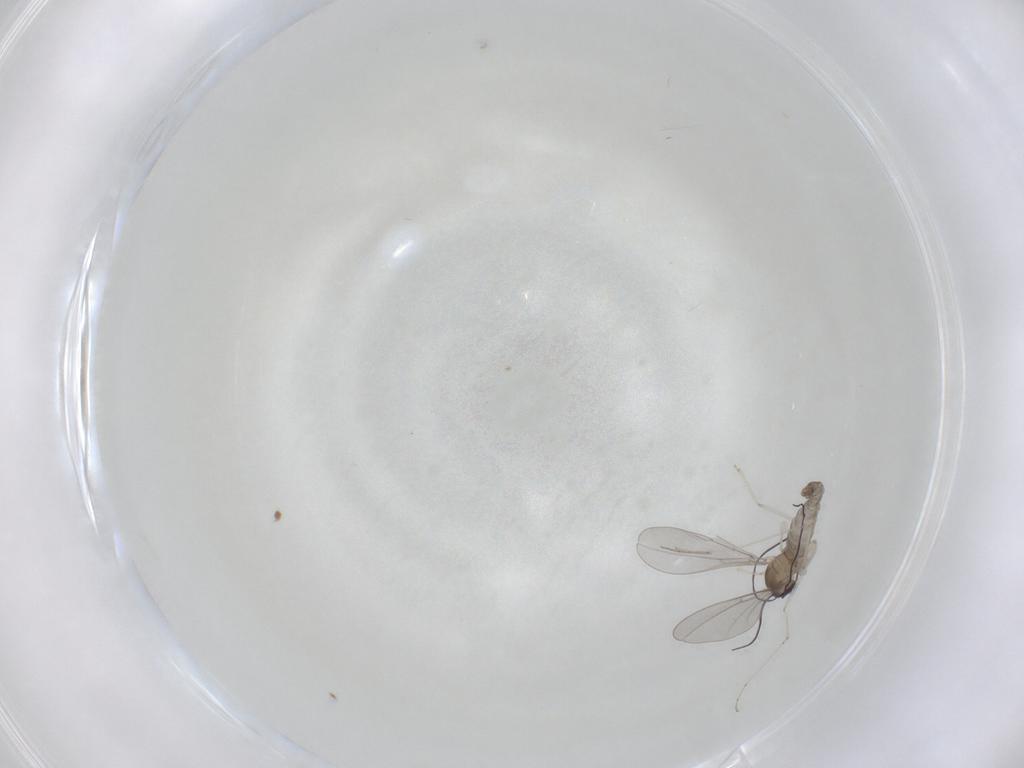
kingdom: Animalia
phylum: Arthropoda
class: Insecta
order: Diptera
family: Cecidomyiidae
